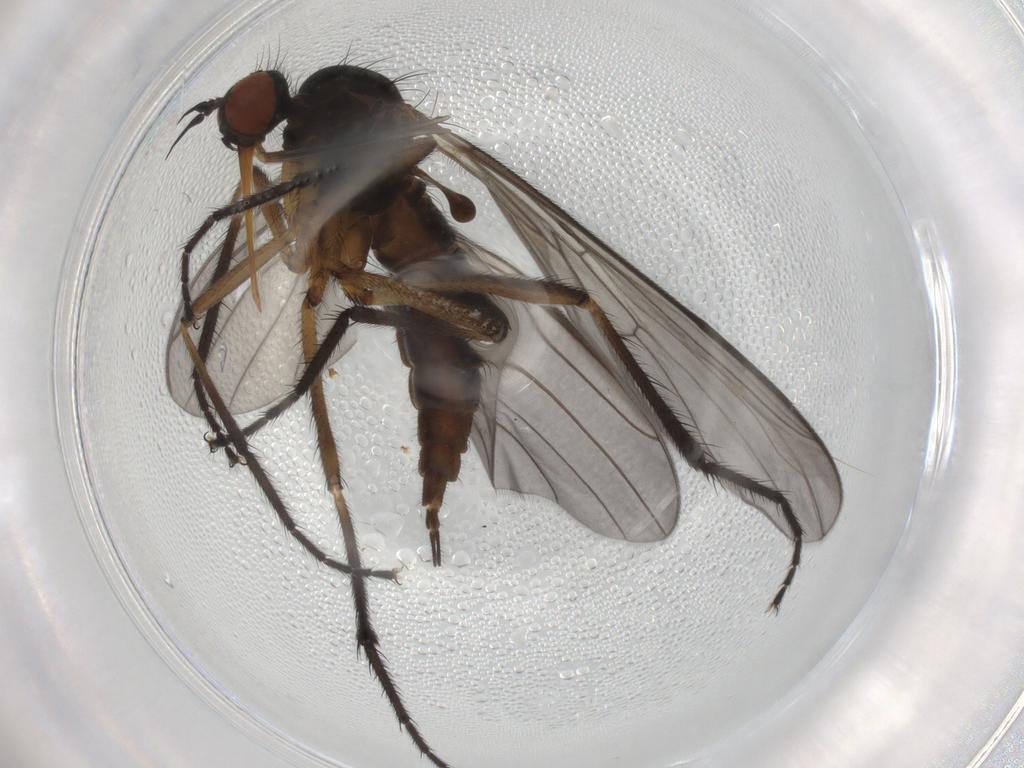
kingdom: Animalia
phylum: Arthropoda
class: Insecta
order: Diptera
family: Empididae
